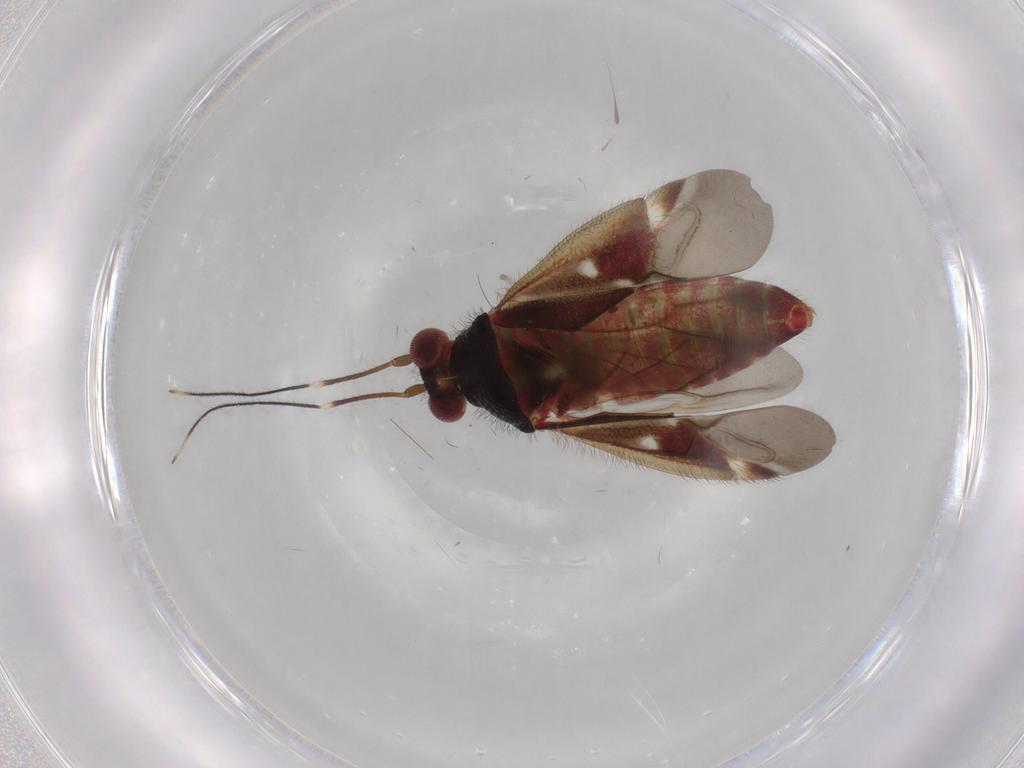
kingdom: Animalia
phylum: Arthropoda
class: Insecta
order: Hemiptera
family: Miridae
